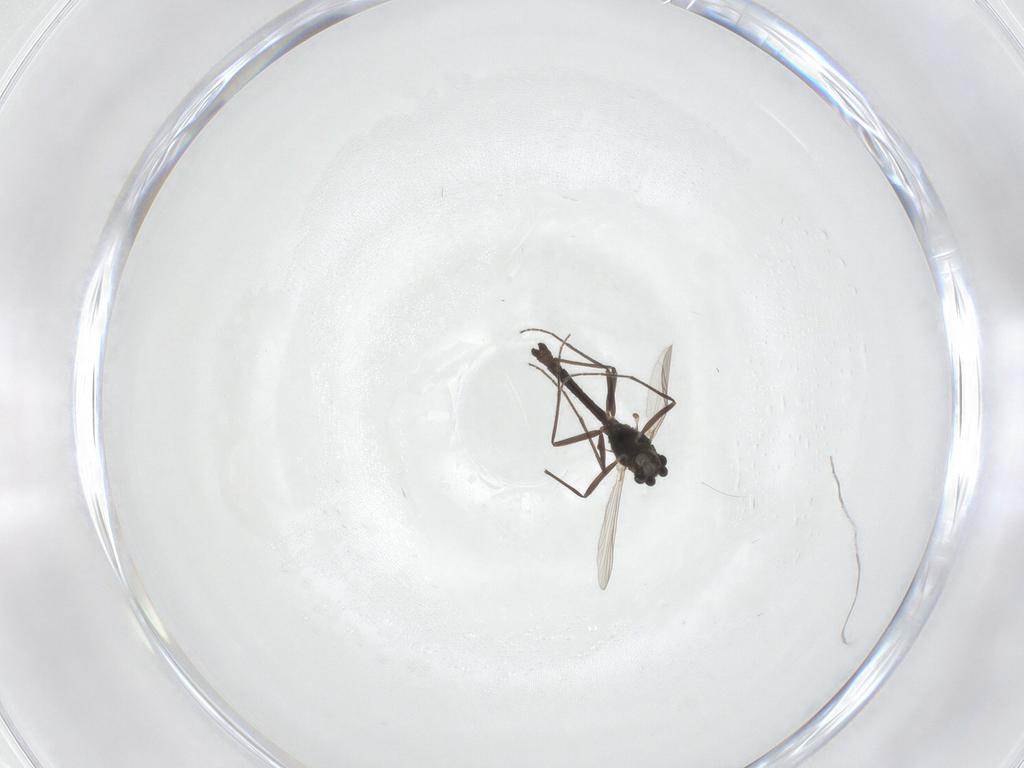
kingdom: Animalia
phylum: Arthropoda
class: Insecta
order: Diptera
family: Chironomidae
